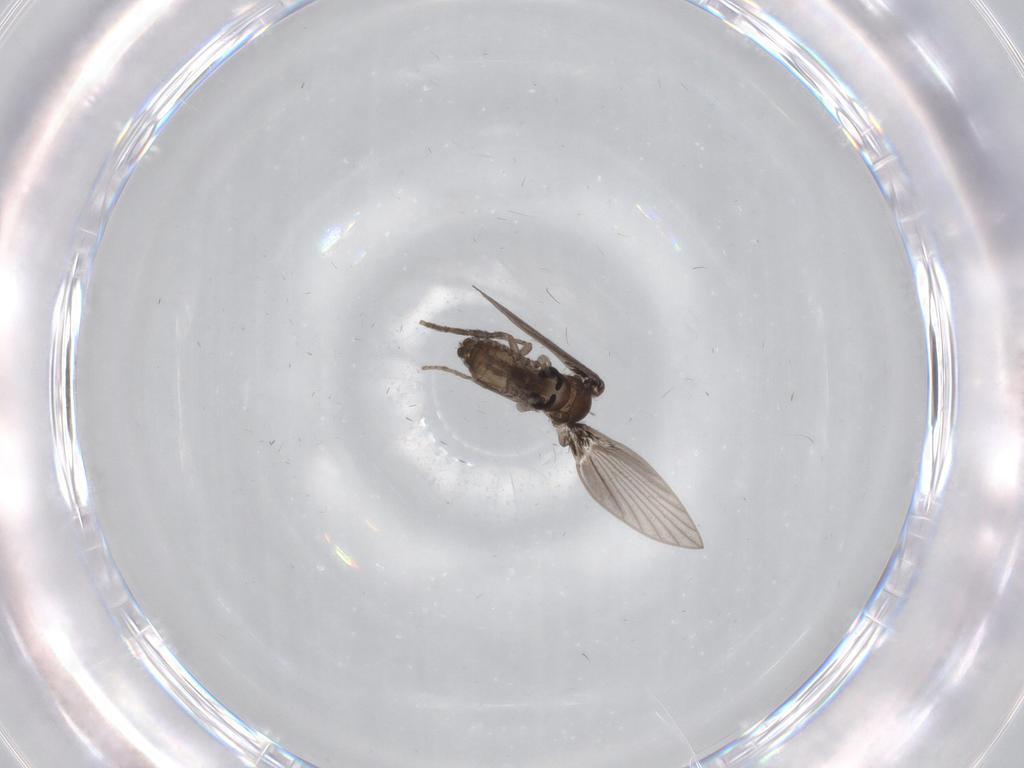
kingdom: Animalia
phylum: Arthropoda
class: Insecta
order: Diptera
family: Psychodidae
